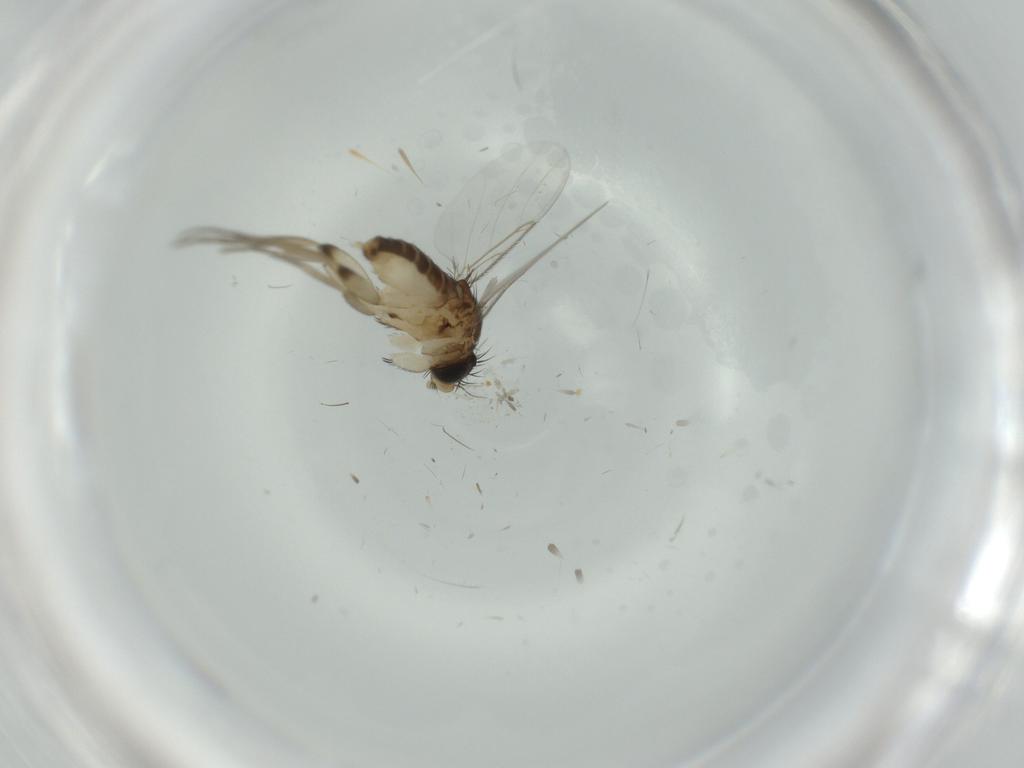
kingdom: Animalia
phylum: Arthropoda
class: Insecta
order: Diptera
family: Phoridae
